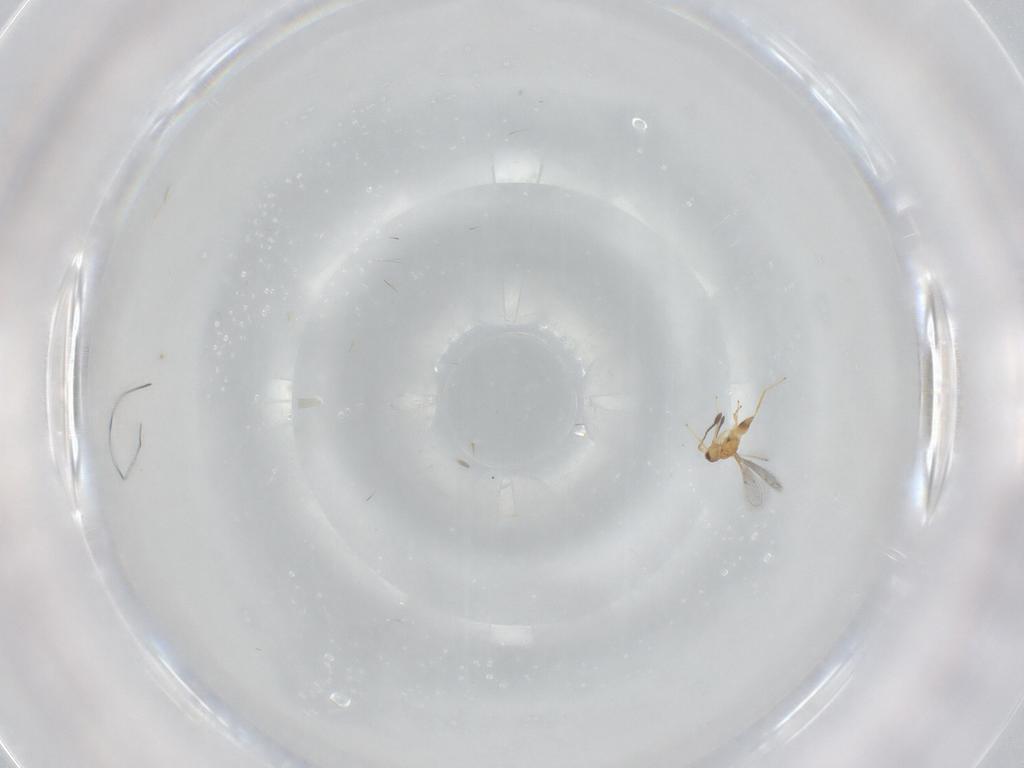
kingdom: Animalia
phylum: Arthropoda
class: Insecta
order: Hymenoptera
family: Mymaridae
